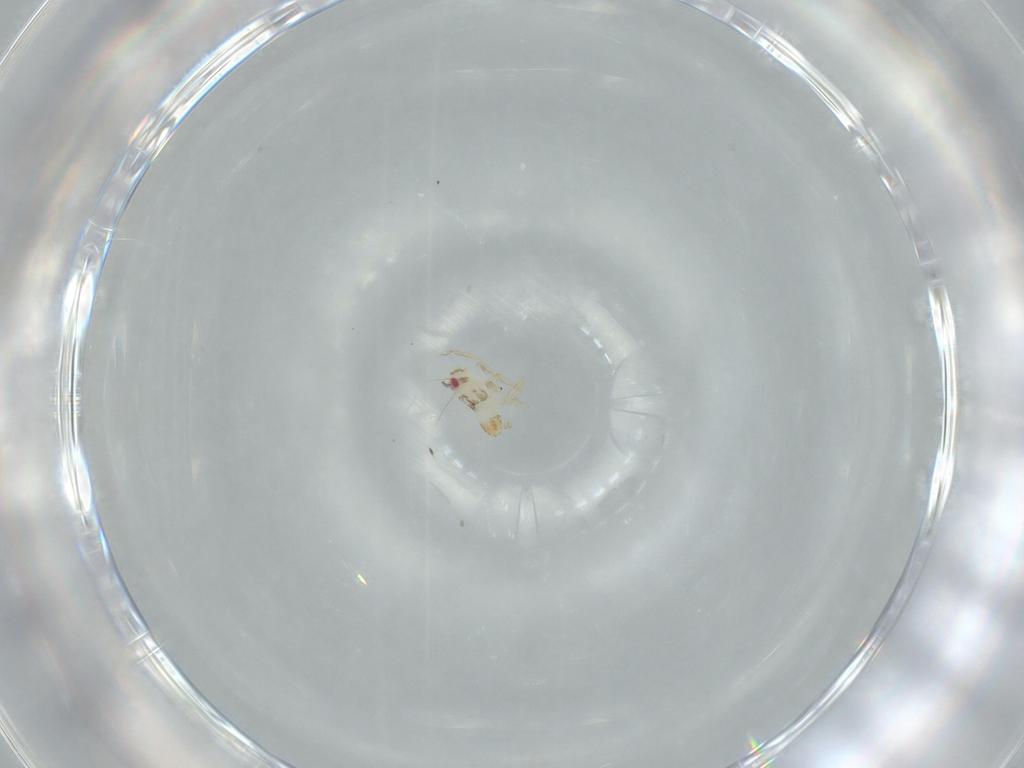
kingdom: Animalia
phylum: Arthropoda
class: Insecta
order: Hemiptera
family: Delphacidae
